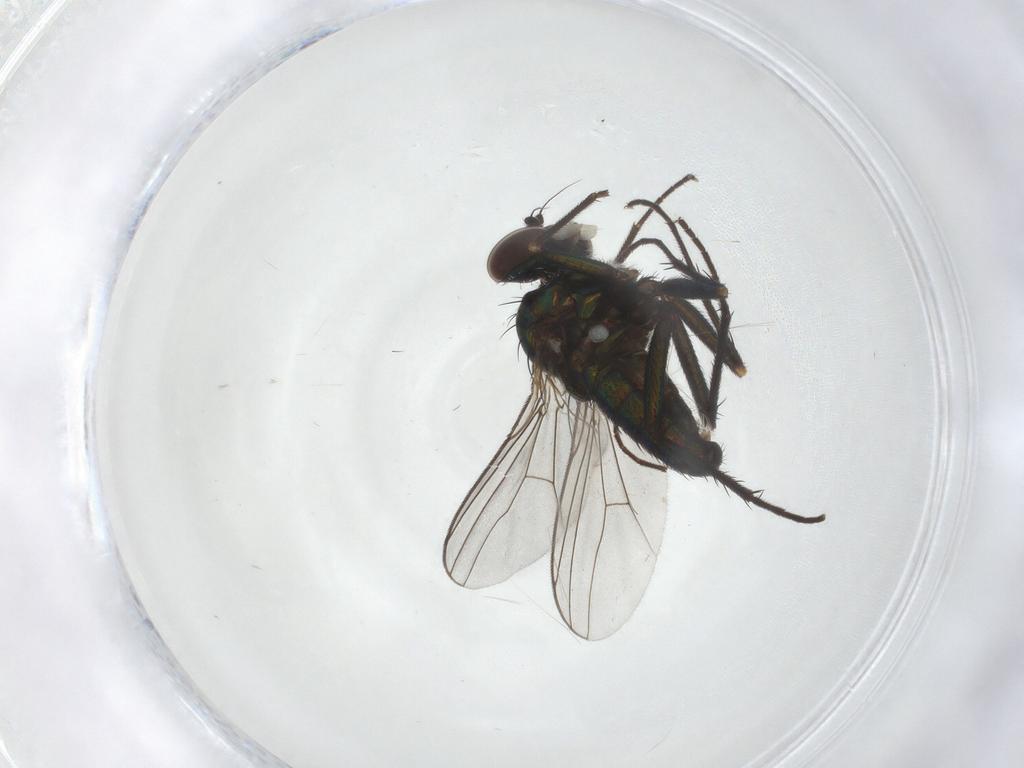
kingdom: Animalia
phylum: Arthropoda
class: Insecta
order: Diptera
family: Dolichopodidae
